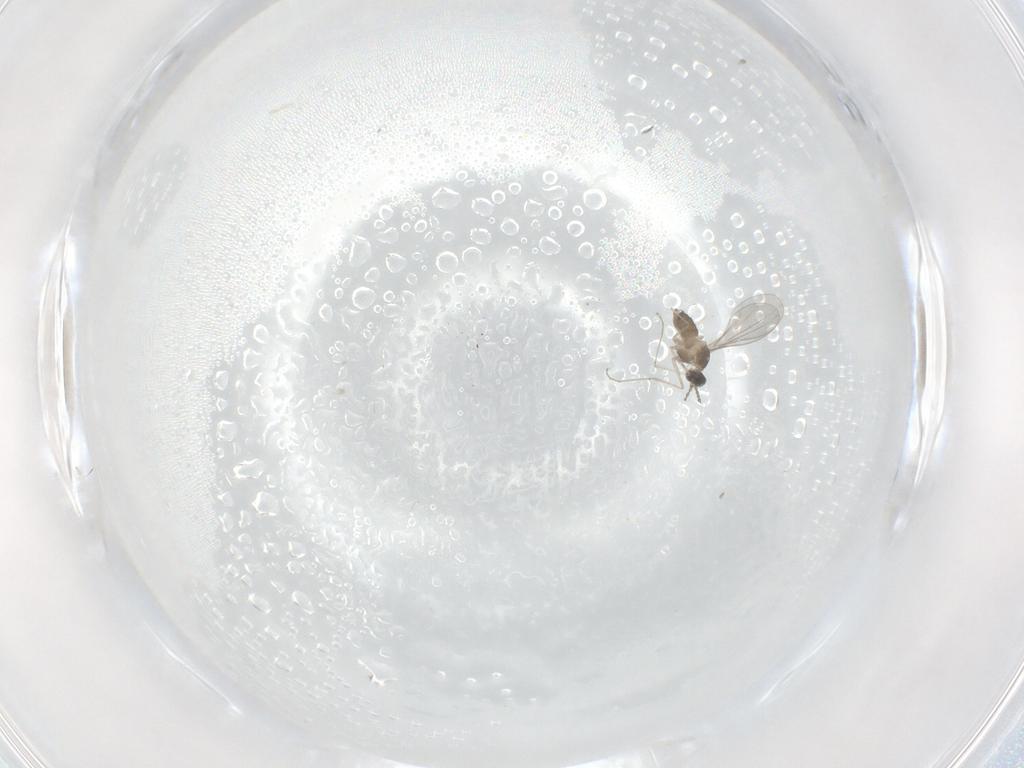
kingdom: Animalia
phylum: Arthropoda
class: Insecta
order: Diptera
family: Cecidomyiidae
